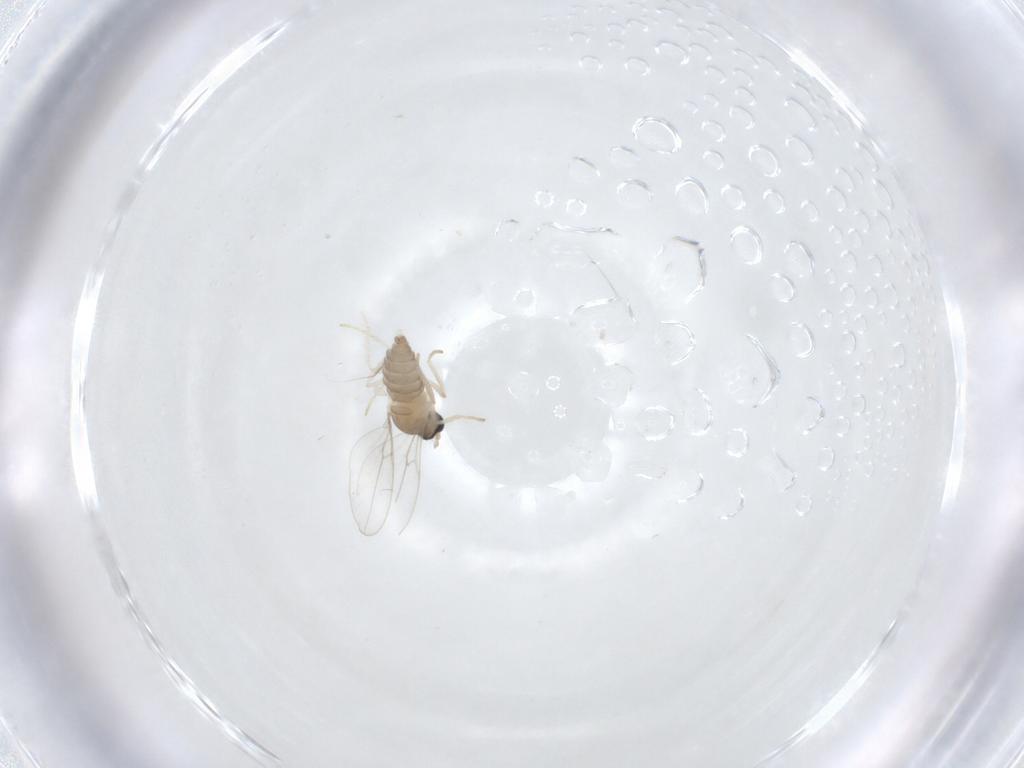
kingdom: Animalia
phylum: Arthropoda
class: Insecta
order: Diptera
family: Cecidomyiidae
